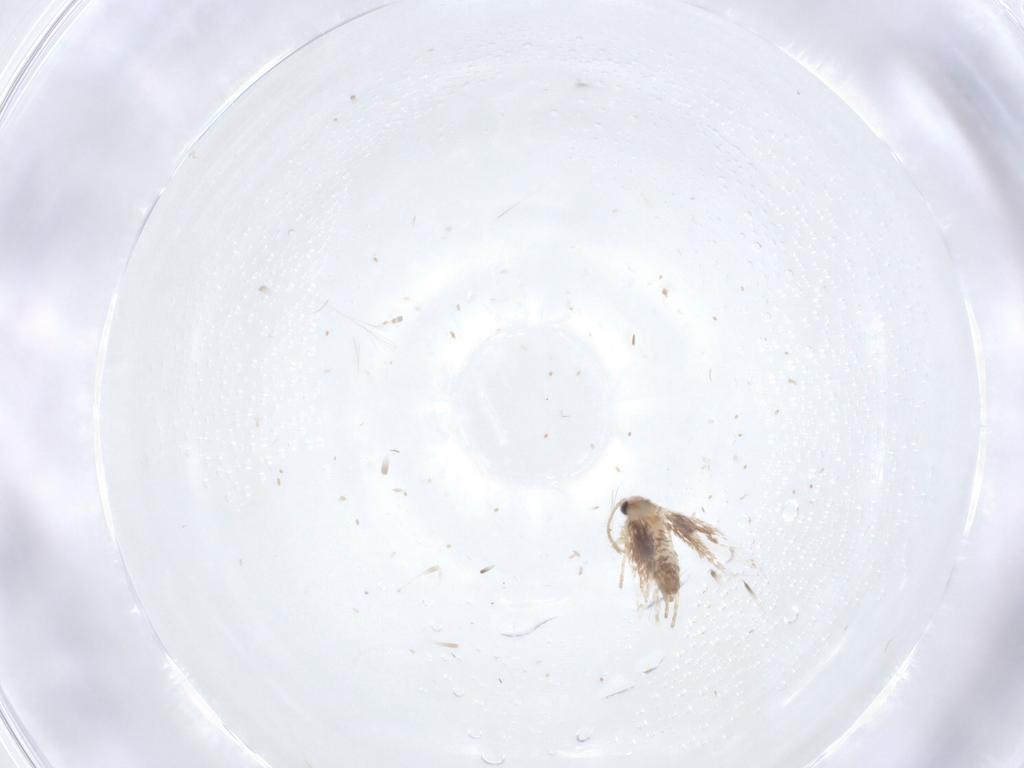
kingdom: Animalia
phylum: Arthropoda
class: Insecta
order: Lepidoptera
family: Nepticulidae
